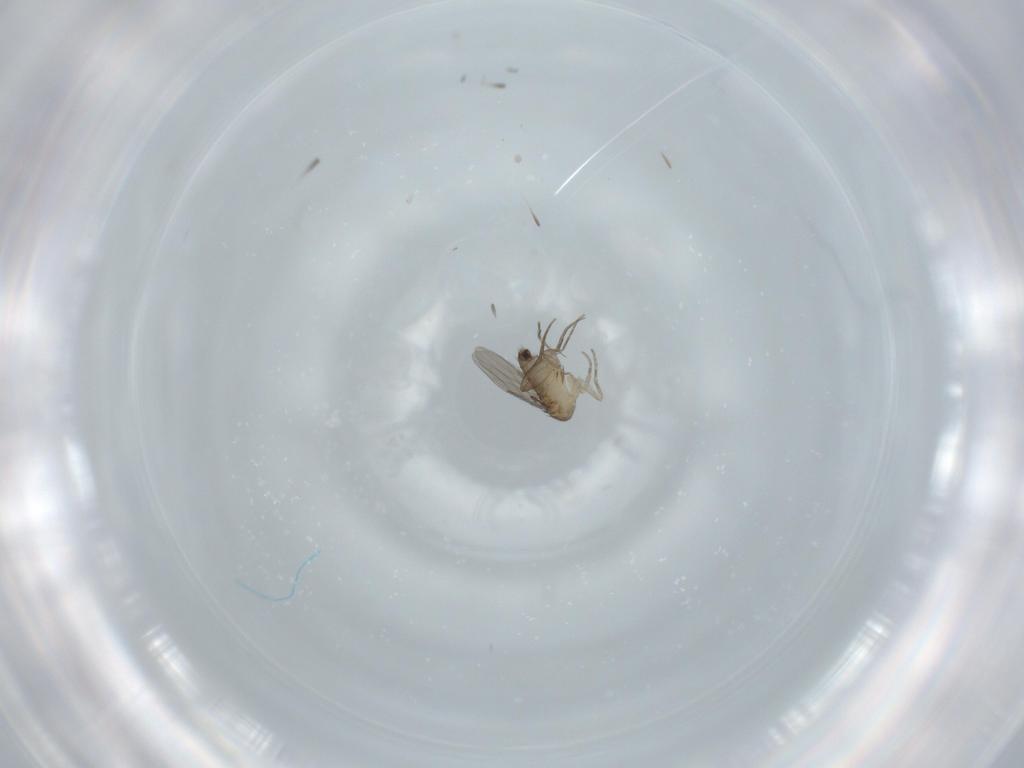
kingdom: Animalia
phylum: Arthropoda
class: Insecta
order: Diptera
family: Phoridae
